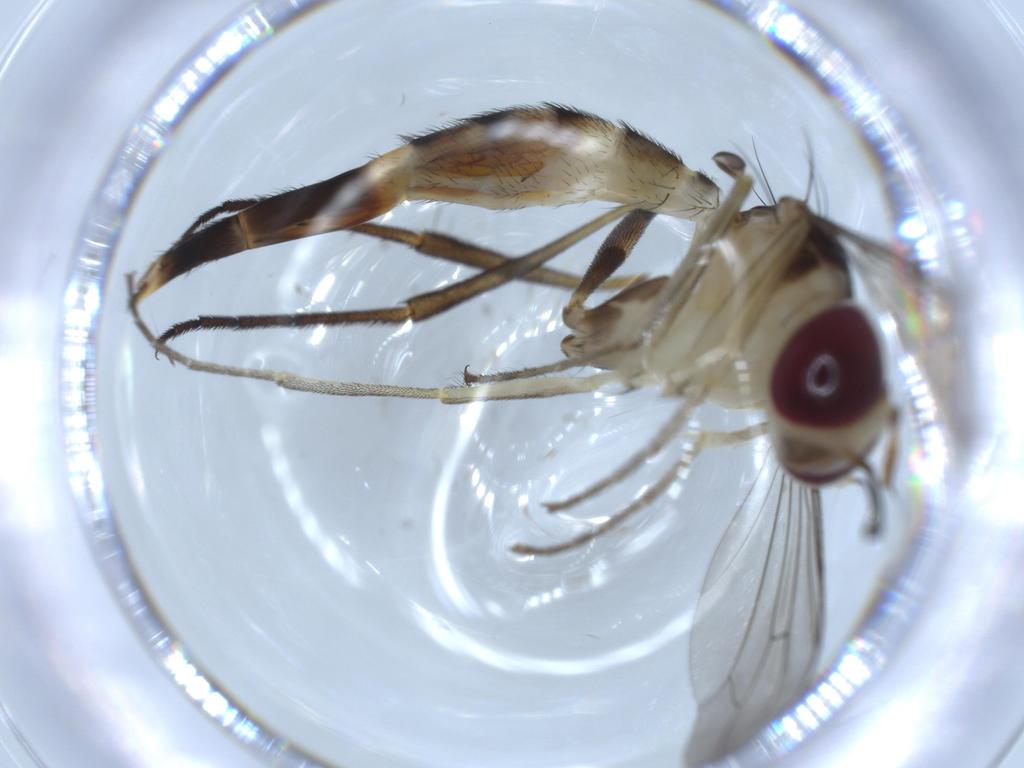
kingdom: Animalia
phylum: Arthropoda
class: Insecta
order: Diptera
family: Conopidae
